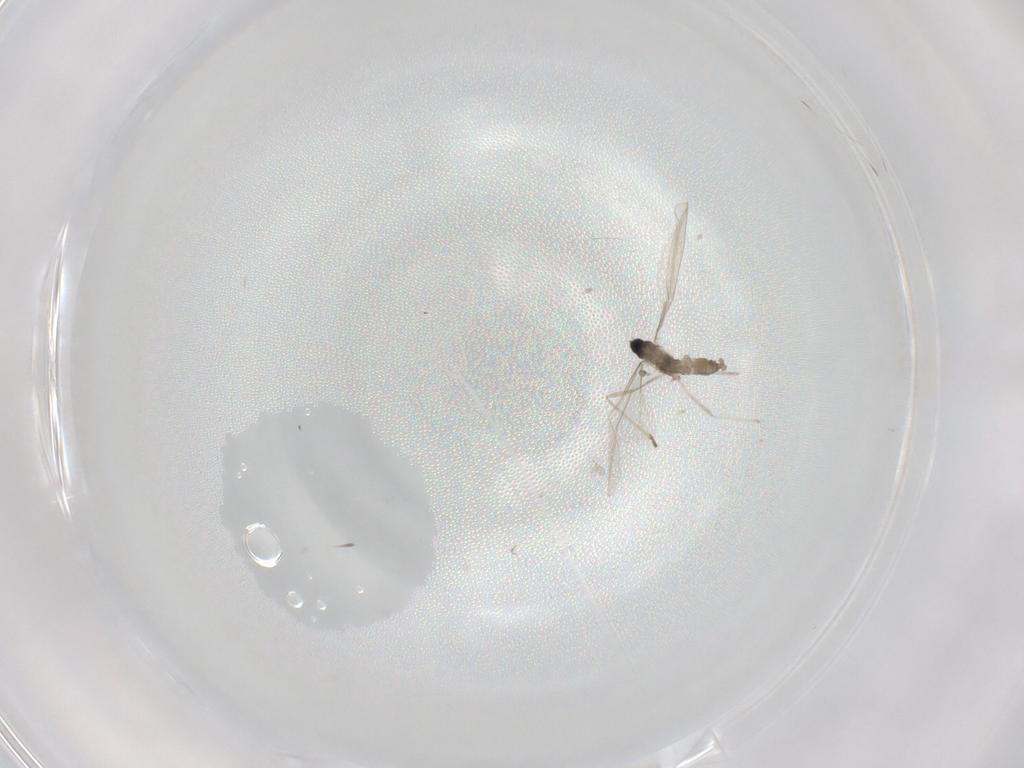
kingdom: Animalia
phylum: Arthropoda
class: Insecta
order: Diptera
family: Cecidomyiidae
